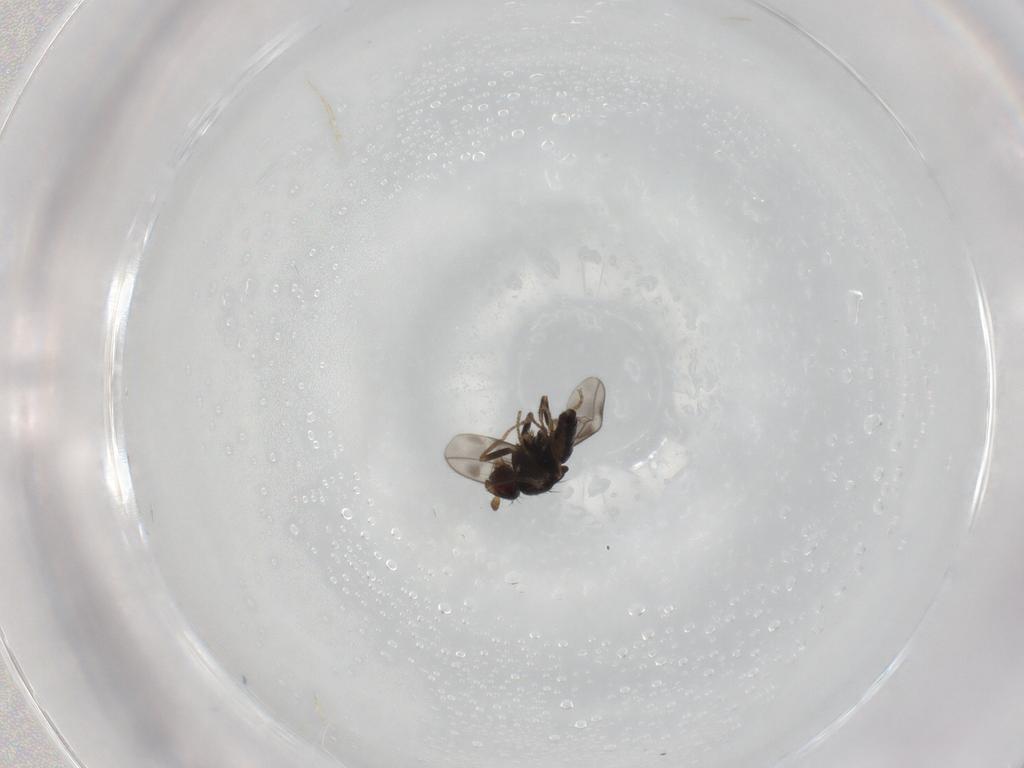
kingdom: Animalia
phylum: Arthropoda
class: Insecta
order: Diptera
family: Sphaeroceridae
